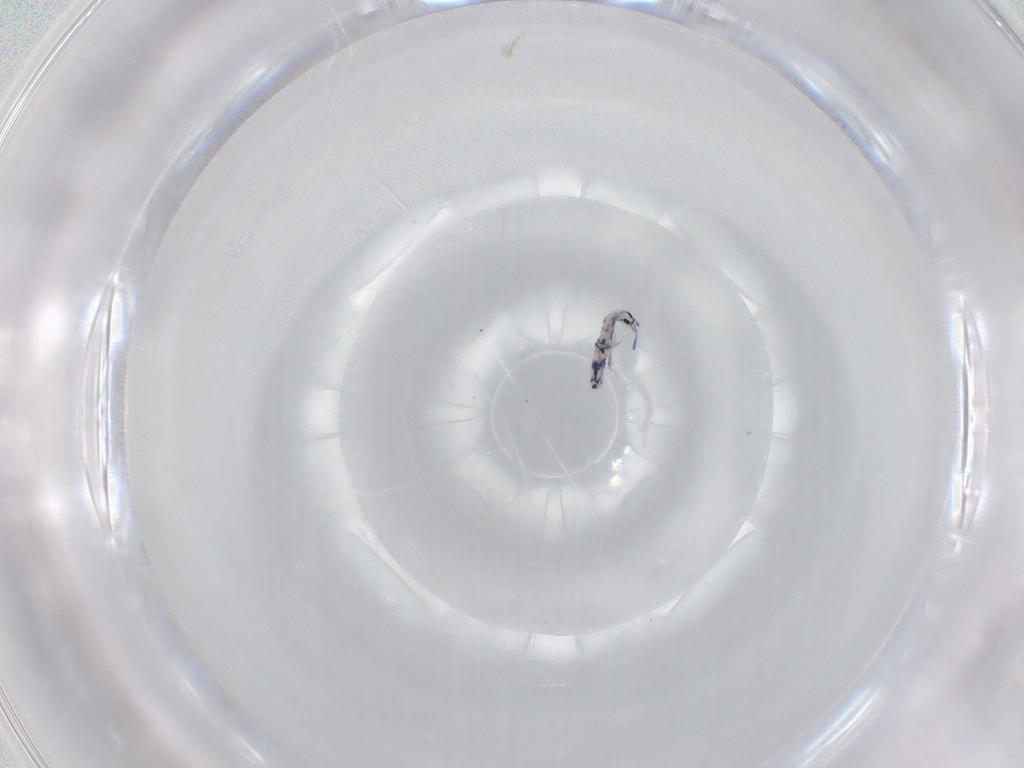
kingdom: Animalia
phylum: Arthropoda
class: Collembola
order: Entomobryomorpha
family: Entomobryidae
